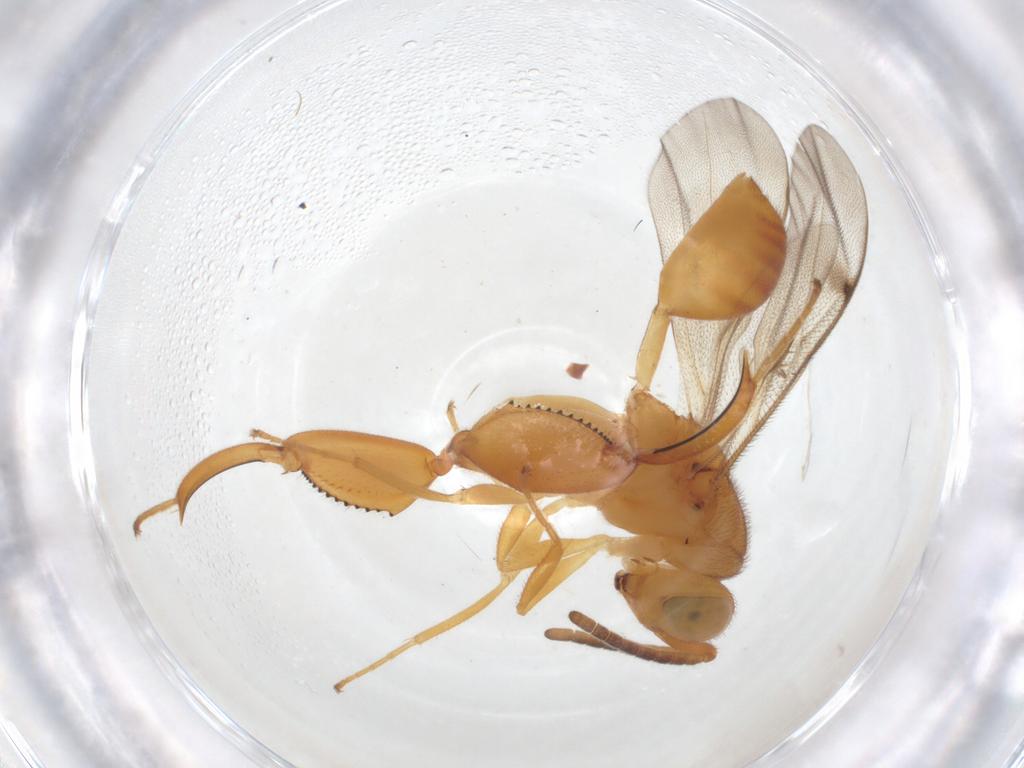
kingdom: Animalia
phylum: Arthropoda
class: Insecta
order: Hymenoptera
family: Chalcididae
